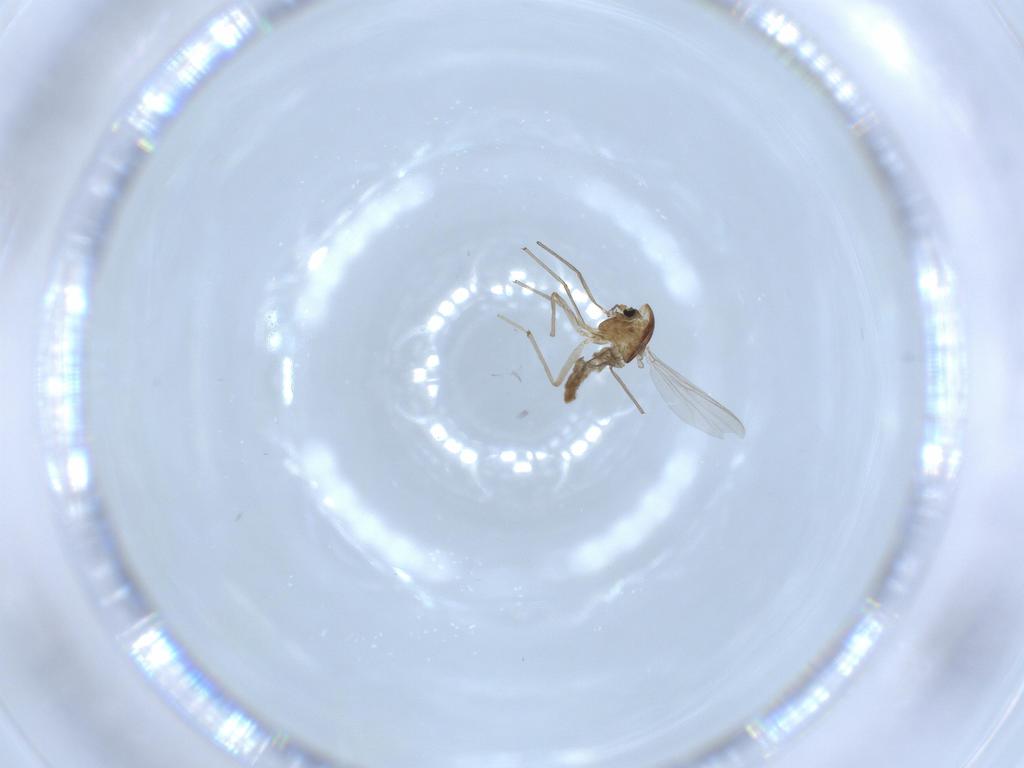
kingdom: Animalia
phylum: Arthropoda
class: Insecta
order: Diptera
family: Chironomidae
